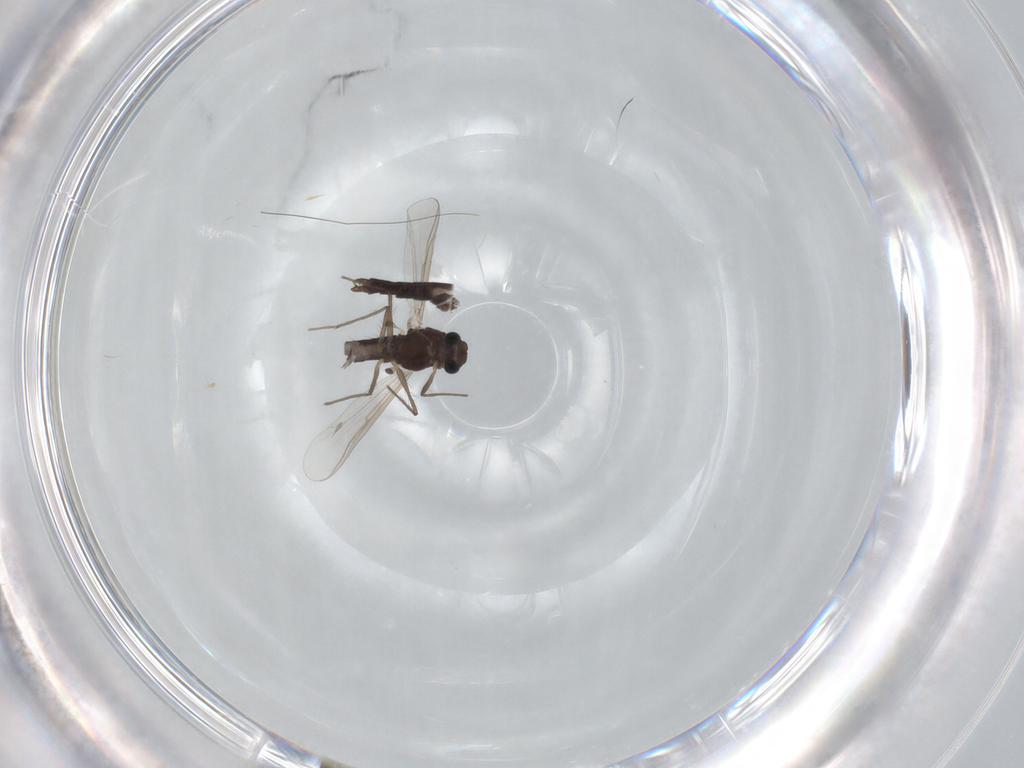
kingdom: Animalia
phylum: Arthropoda
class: Insecta
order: Diptera
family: Chironomidae
